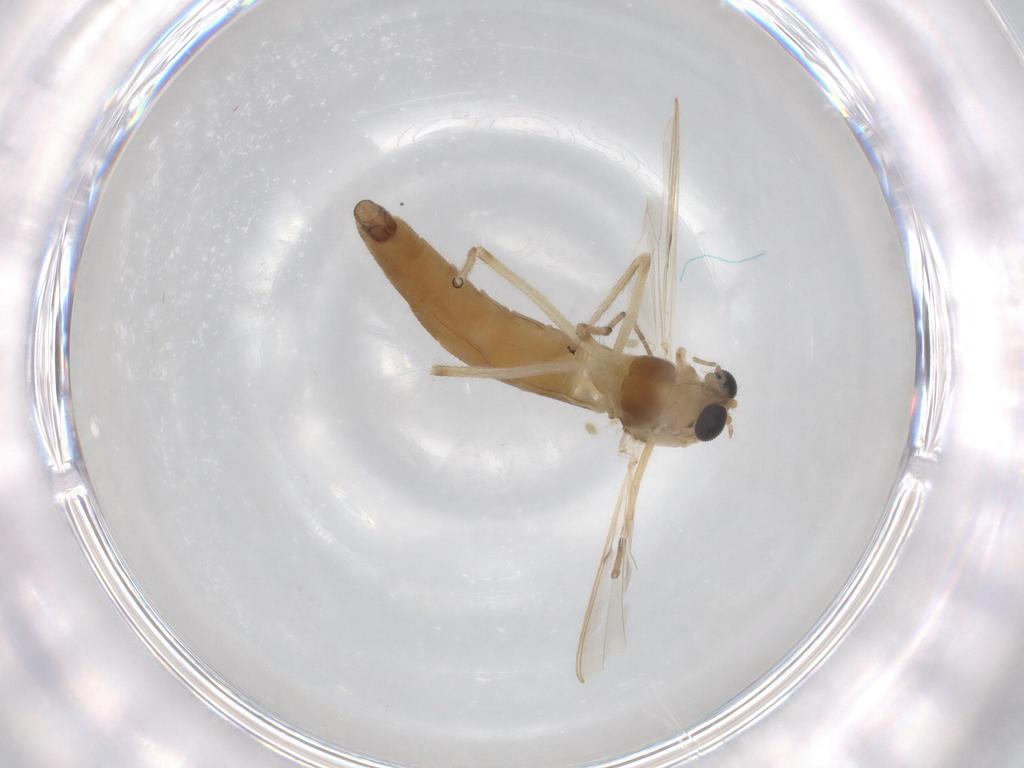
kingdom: Animalia
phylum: Arthropoda
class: Insecta
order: Diptera
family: Chironomidae
